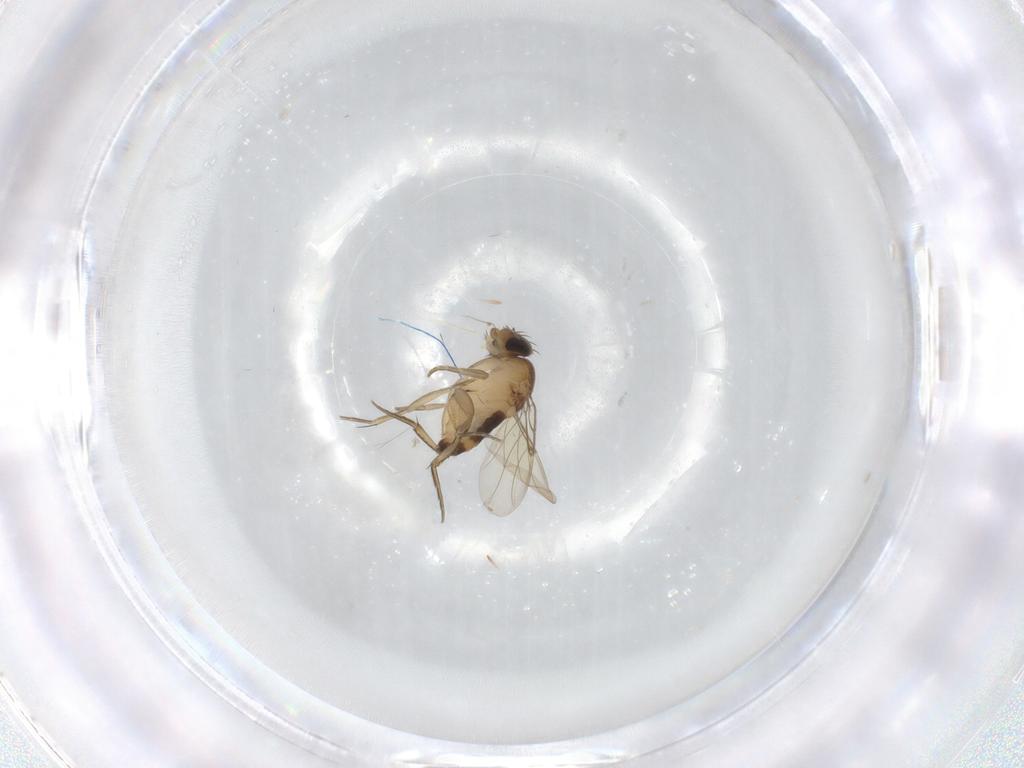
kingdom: Animalia
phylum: Arthropoda
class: Insecta
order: Diptera
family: Phoridae
